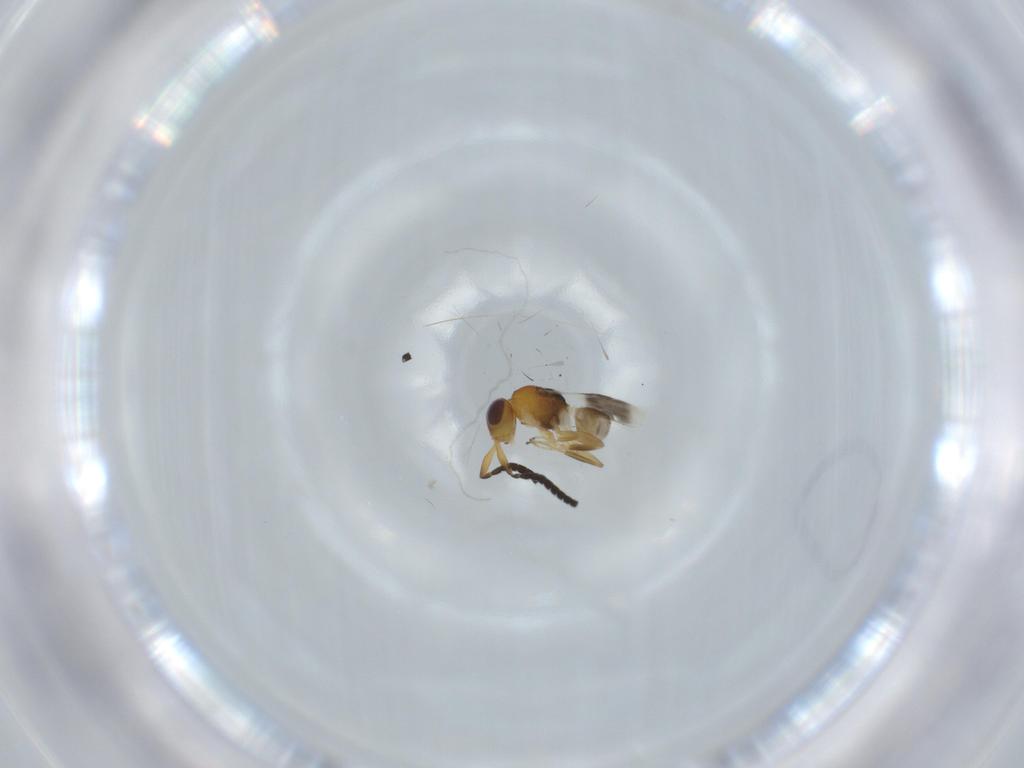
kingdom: Animalia
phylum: Arthropoda
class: Insecta
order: Hymenoptera
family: Megaspilidae
